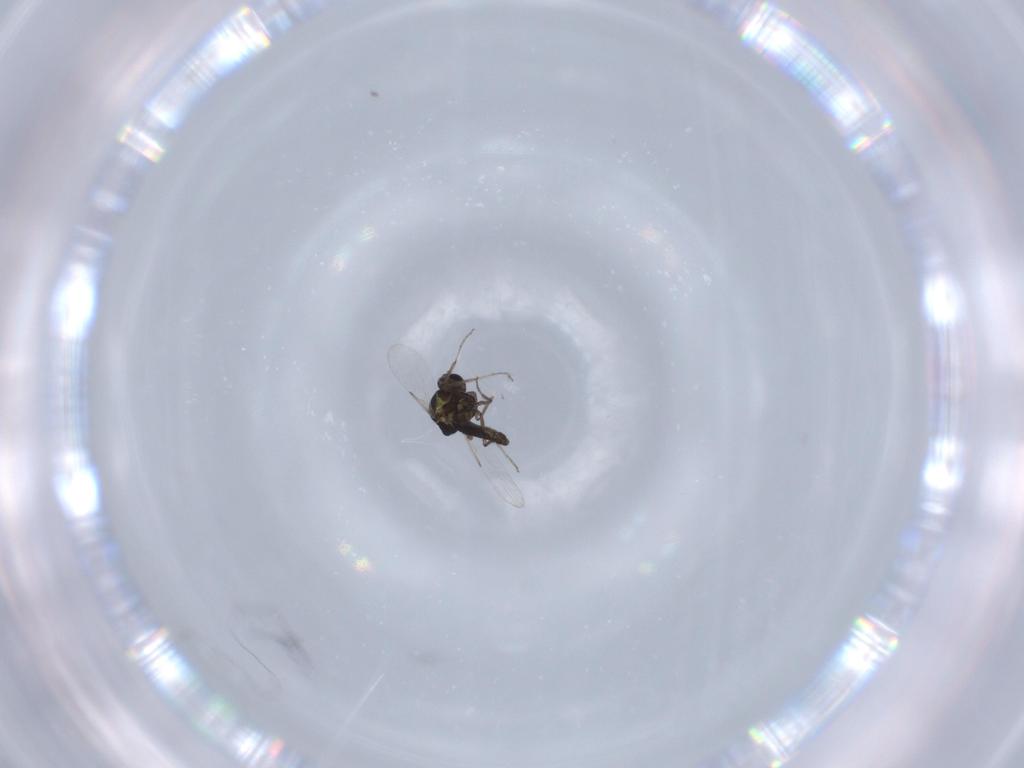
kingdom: Animalia
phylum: Arthropoda
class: Insecta
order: Diptera
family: Ceratopogonidae
